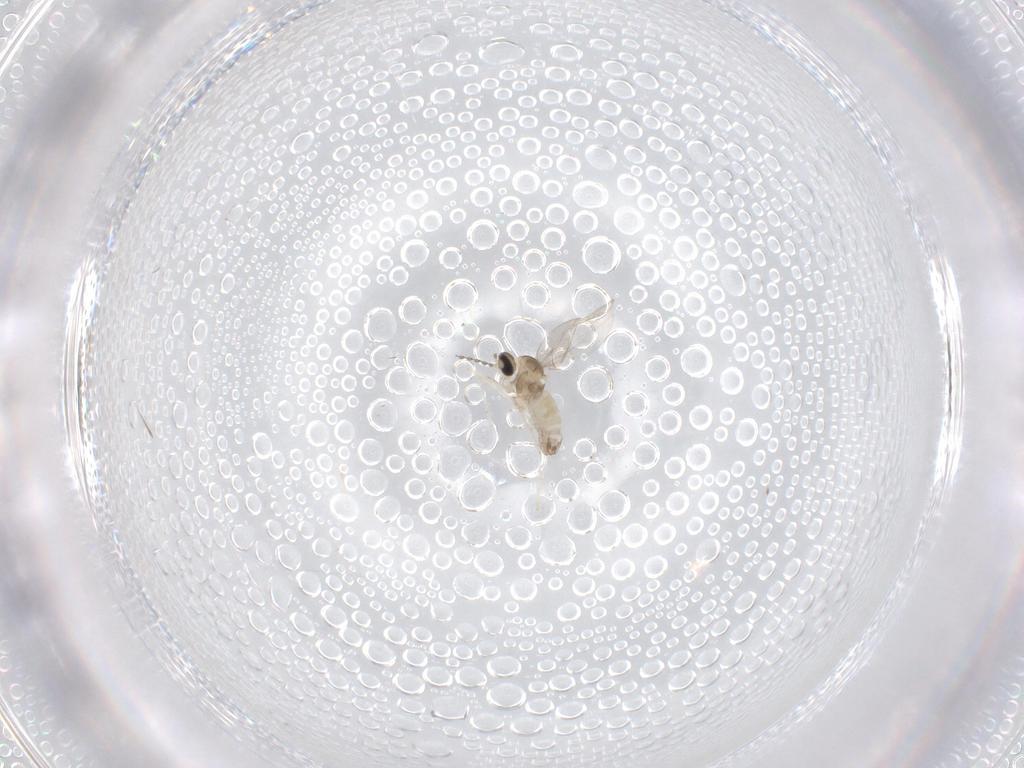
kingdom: Animalia
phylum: Arthropoda
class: Insecta
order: Diptera
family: Cecidomyiidae
